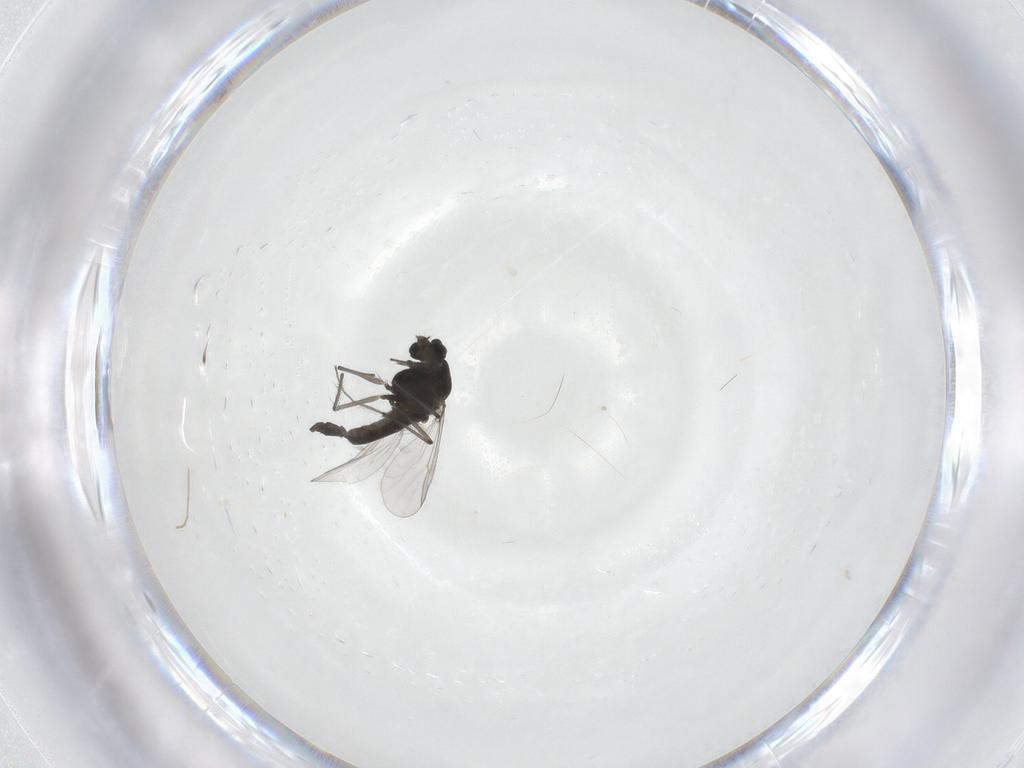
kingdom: Animalia
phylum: Arthropoda
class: Insecta
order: Diptera
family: Chironomidae
